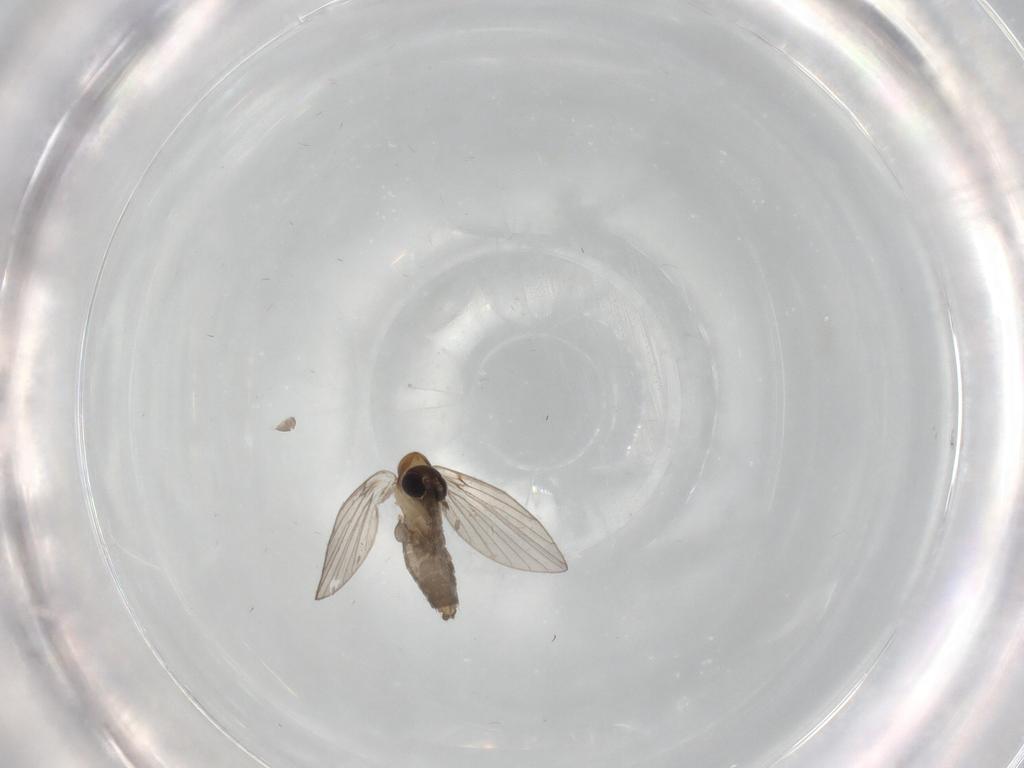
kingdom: Animalia
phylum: Arthropoda
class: Insecta
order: Diptera
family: Psychodidae
